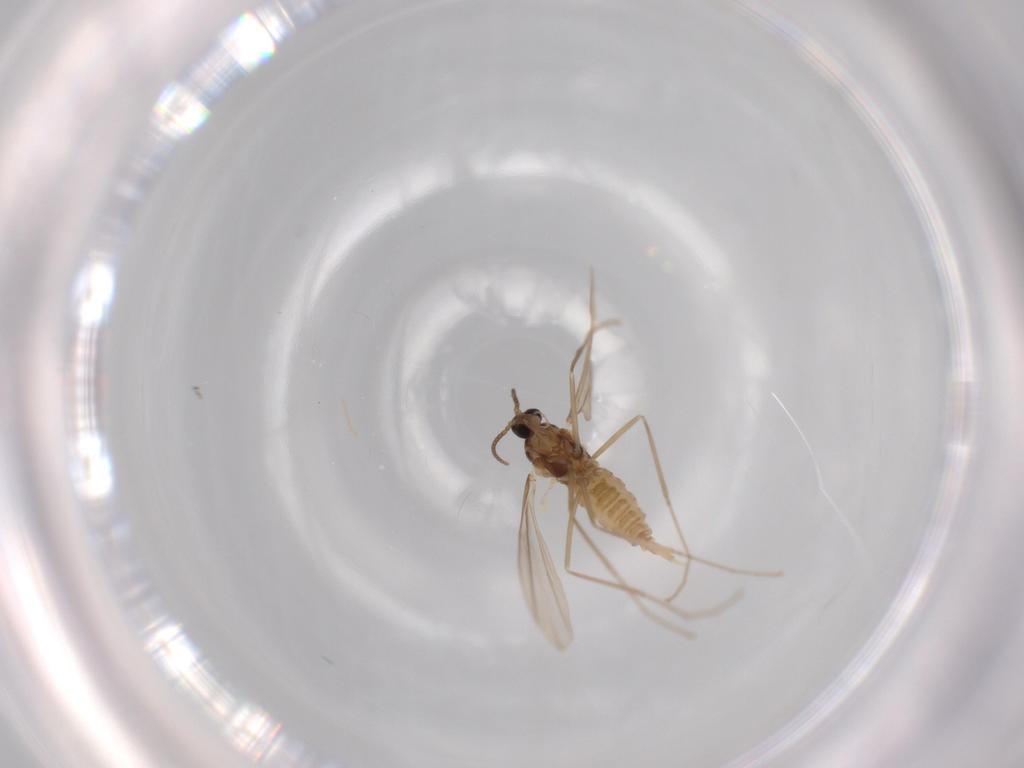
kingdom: Animalia
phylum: Arthropoda
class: Insecta
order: Diptera
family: Cecidomyiidae
